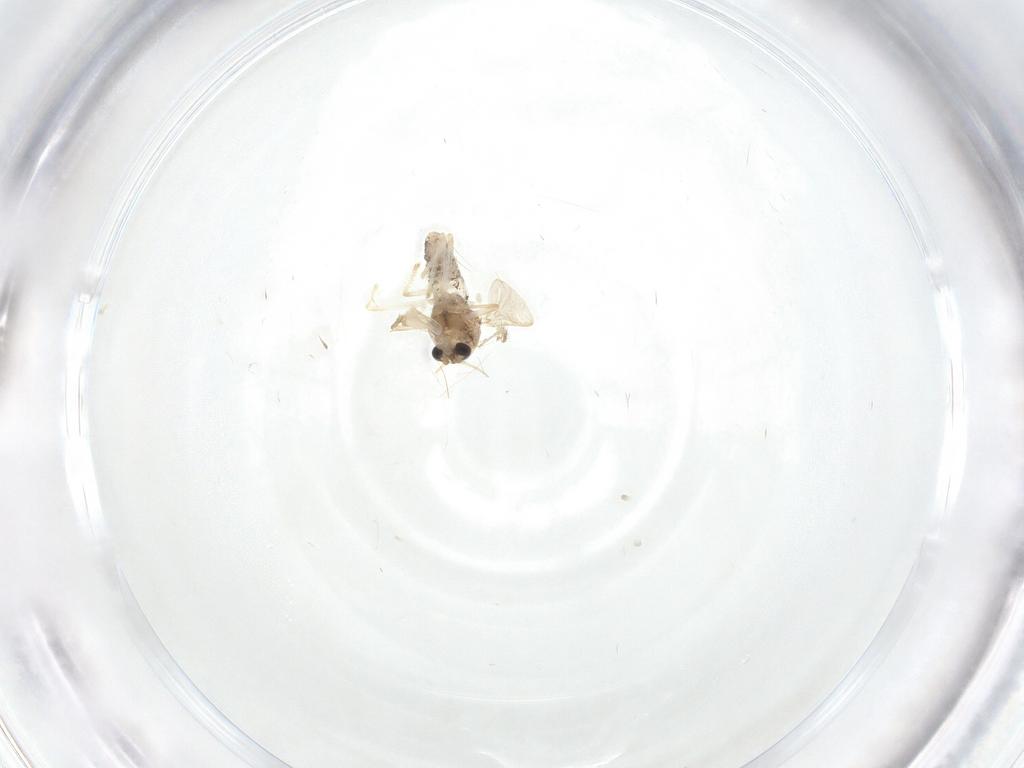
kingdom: Animalia
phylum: Arthropoda
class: Insecta
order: Diptera
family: Chironomidae
